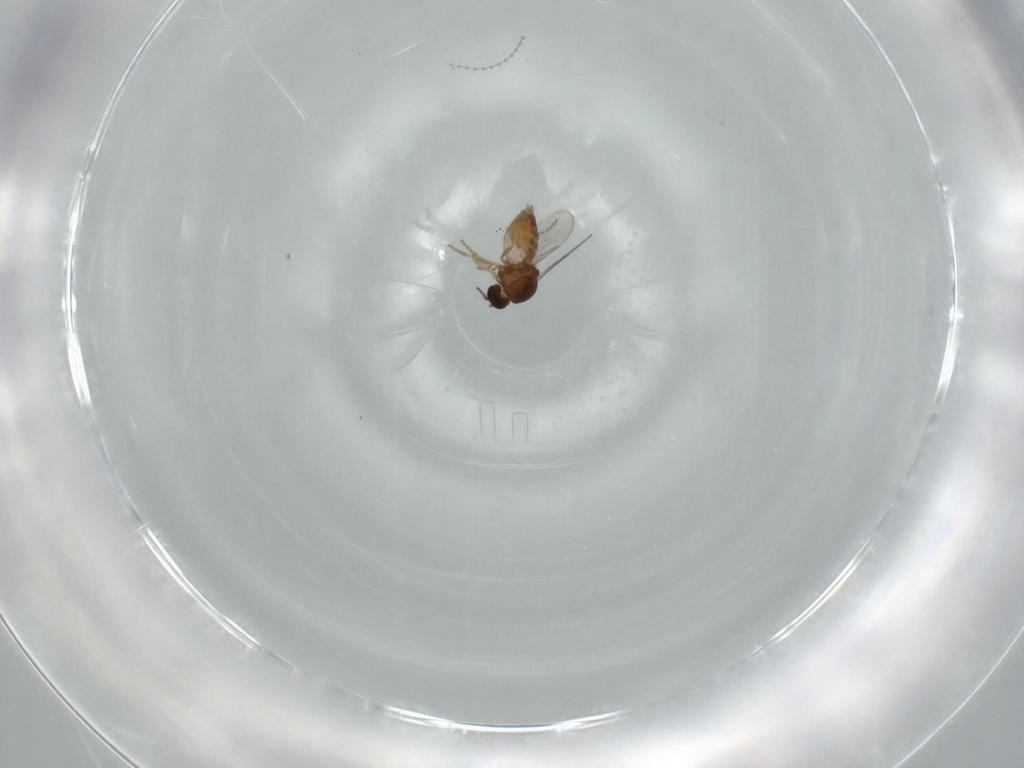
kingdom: Animalia
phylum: Arthropoda
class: Insecta
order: Diptera
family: Ceratopogonidae
